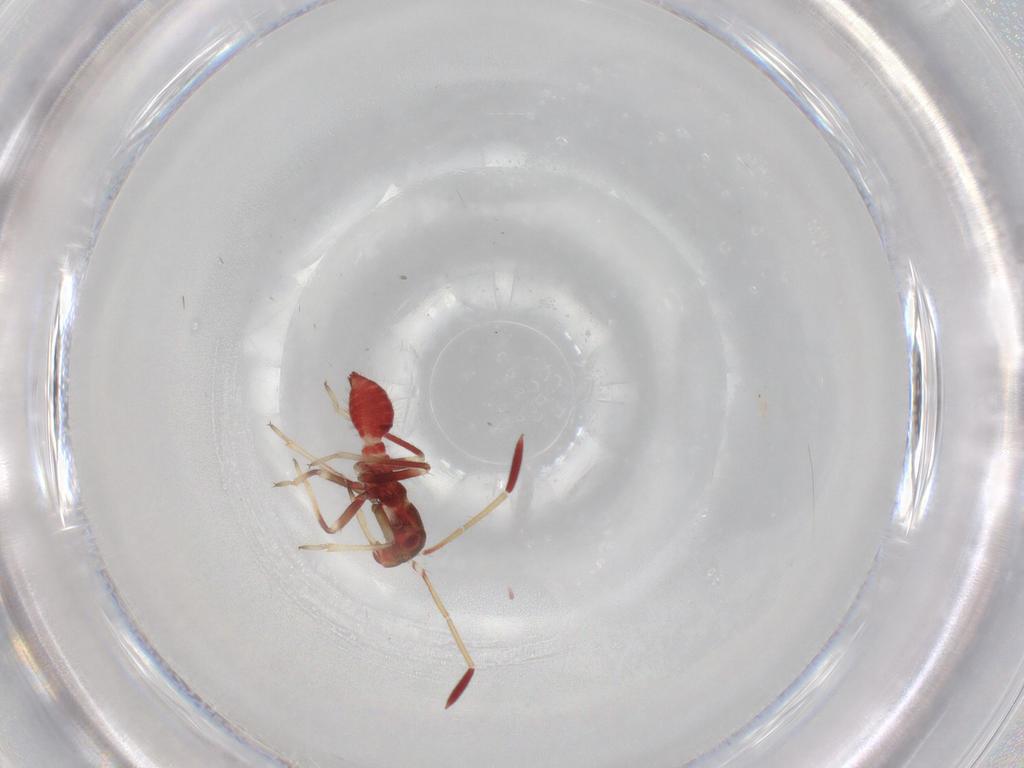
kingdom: Animalia
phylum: Arthropoda
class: Insecta
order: Hemiptera
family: Miridae
